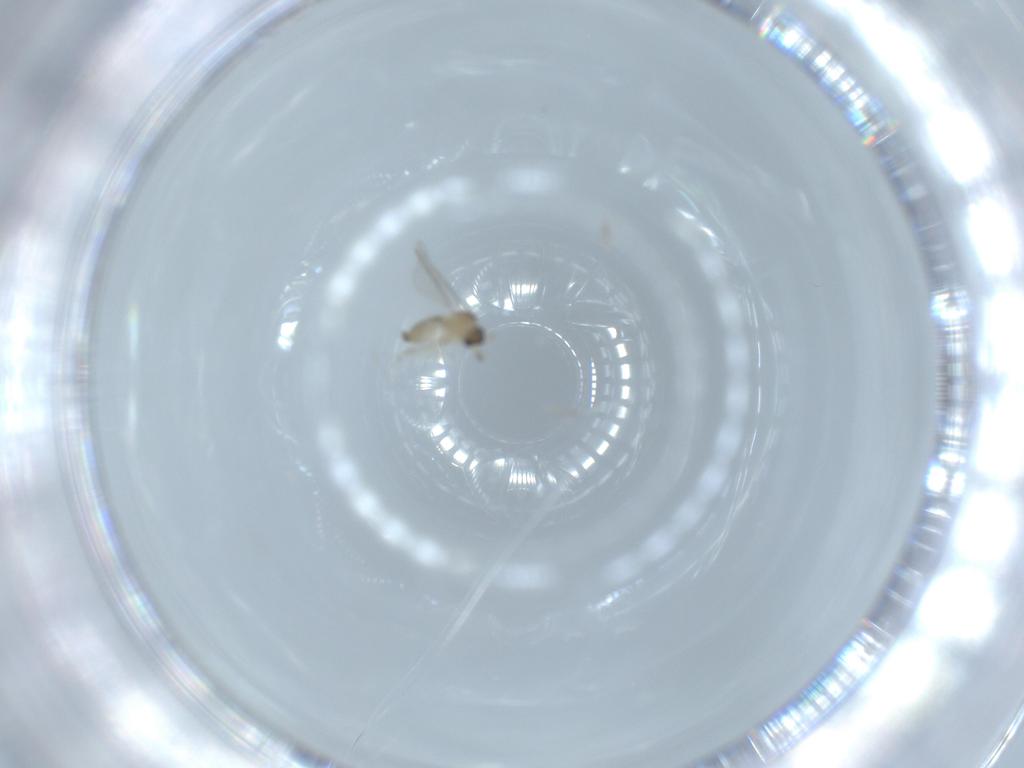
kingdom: Animalia
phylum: Arthropoda
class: Insecta
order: Diptera
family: Cecidomyiidae
